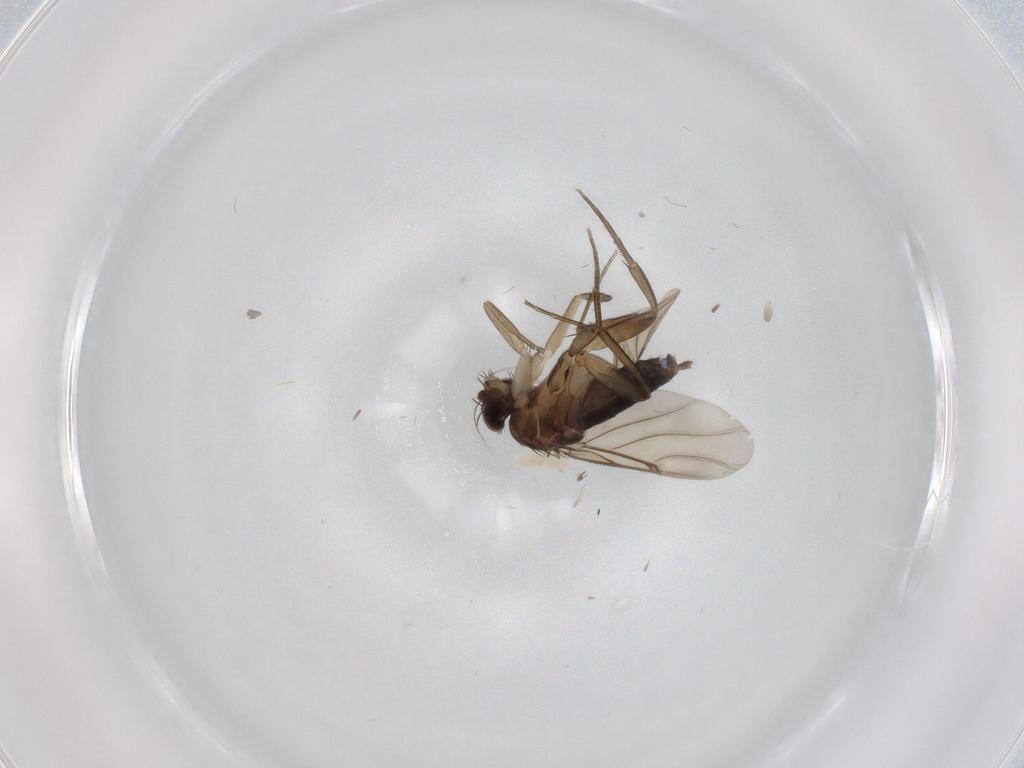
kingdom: Animalia
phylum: Arthropoda
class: Insecta
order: Diptera
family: Phoridae
